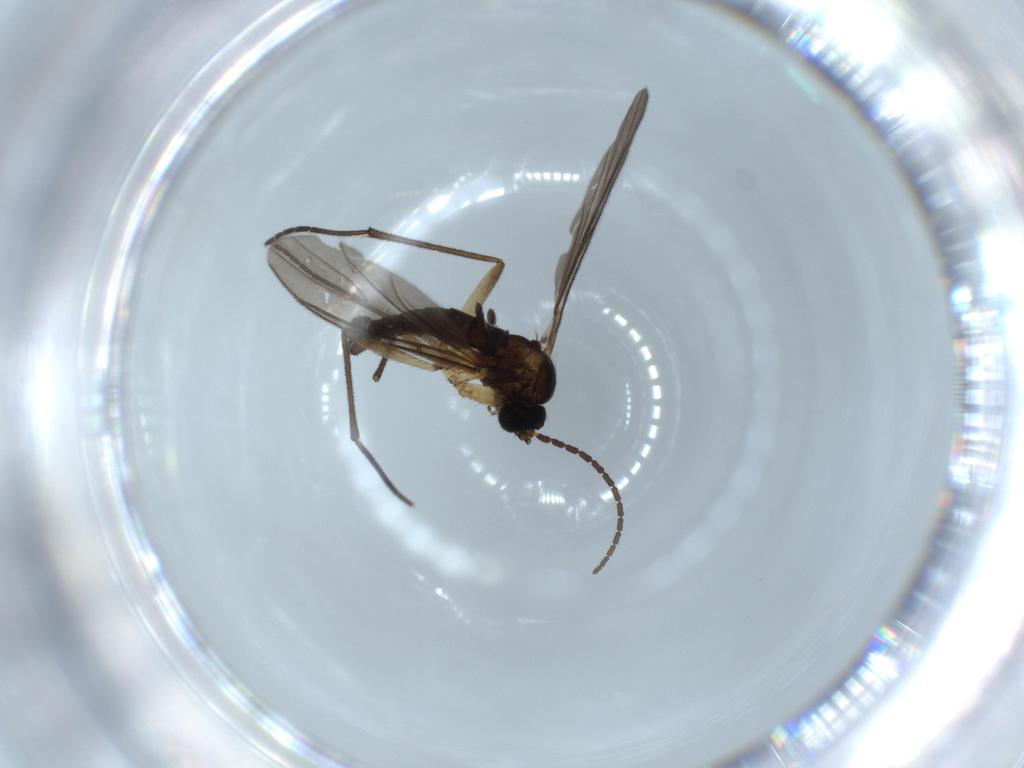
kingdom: Animalia
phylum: Arthropoda
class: Insecta
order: Diptera
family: Sciaridae
